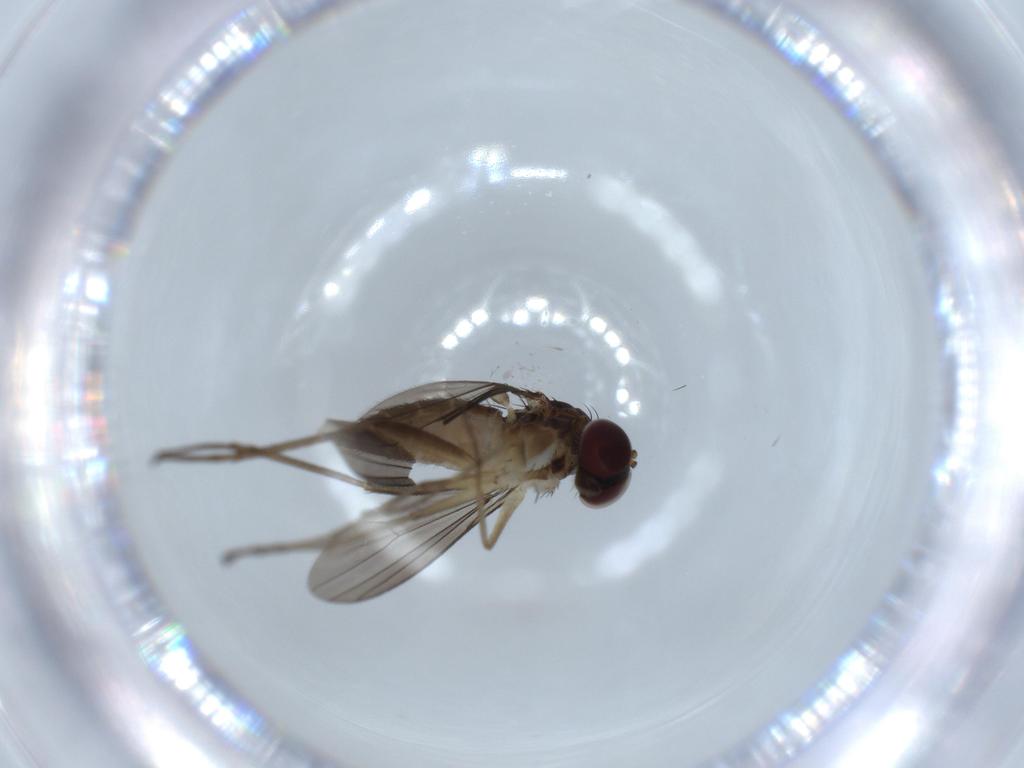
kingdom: Animalia
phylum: Arthropoda
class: Insecta
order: Diptera
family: Dolichopodidae
